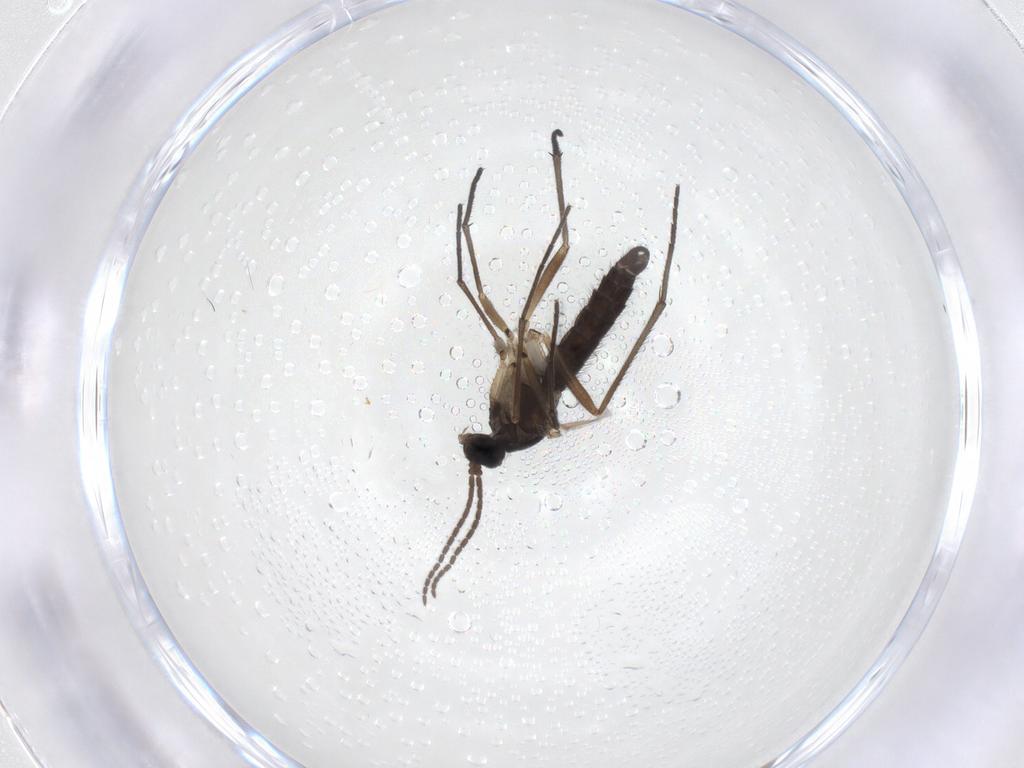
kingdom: Animalia
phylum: Arthropoda
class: Insecta
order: Diptera
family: Sciaridae
